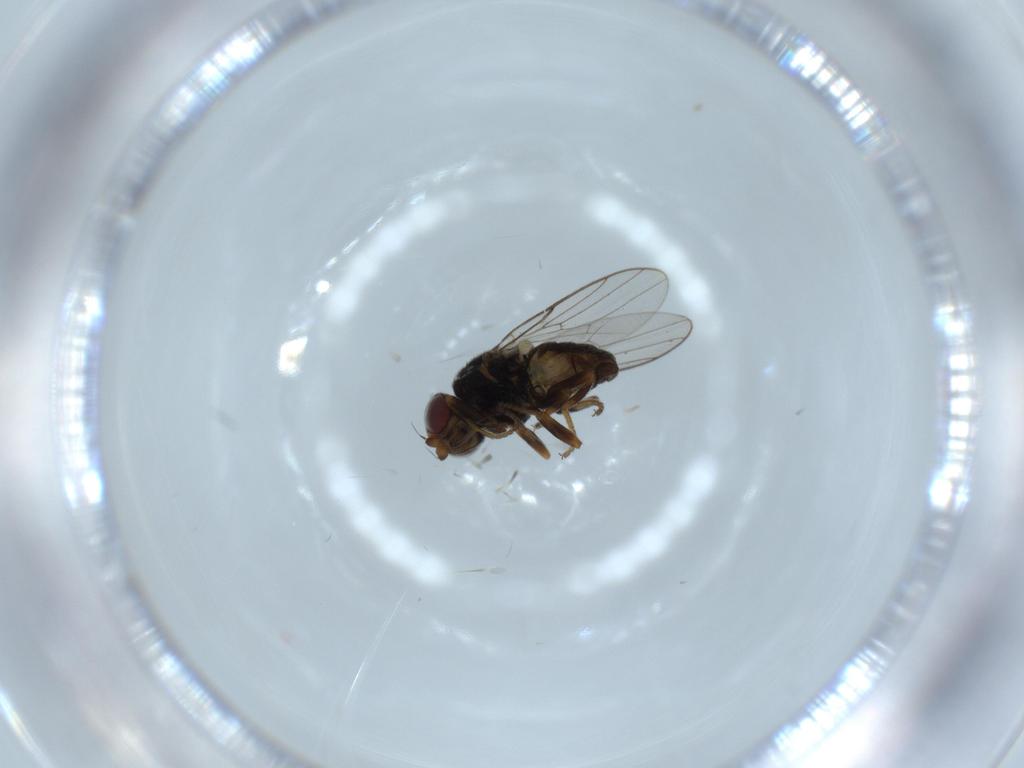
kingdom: Animalia
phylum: Arthropoda
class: Insecta
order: Diptera
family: Chloropidae
